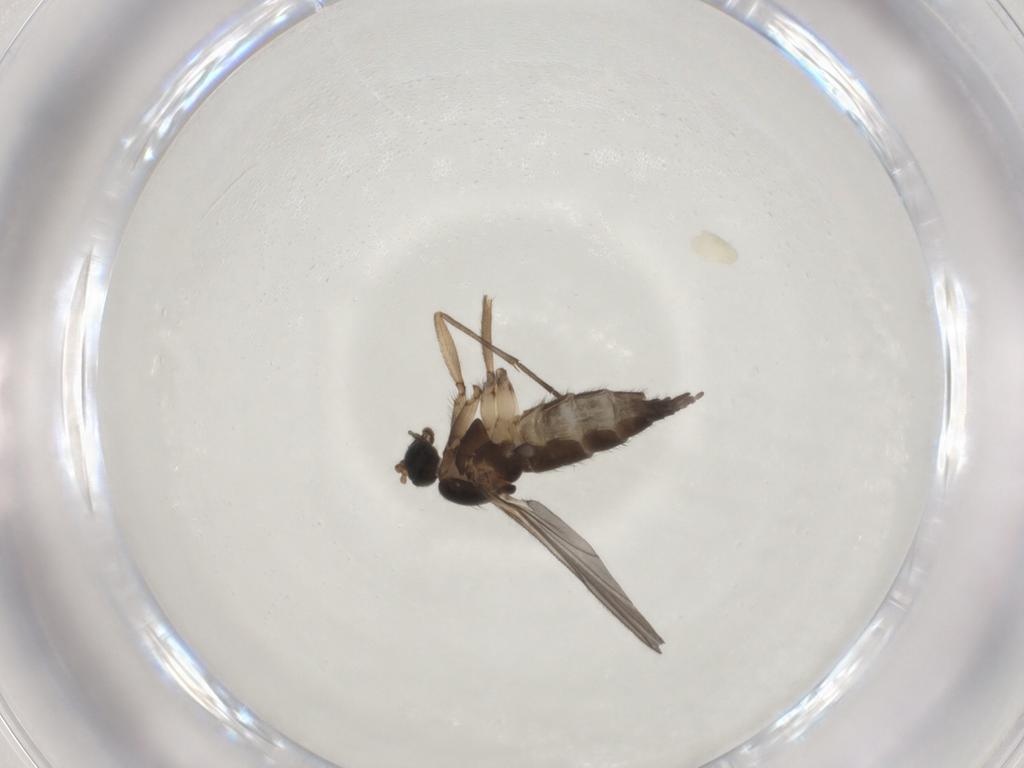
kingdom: Animalia
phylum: Arthropoda
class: Insecta
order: Diptera
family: Sciaridae
